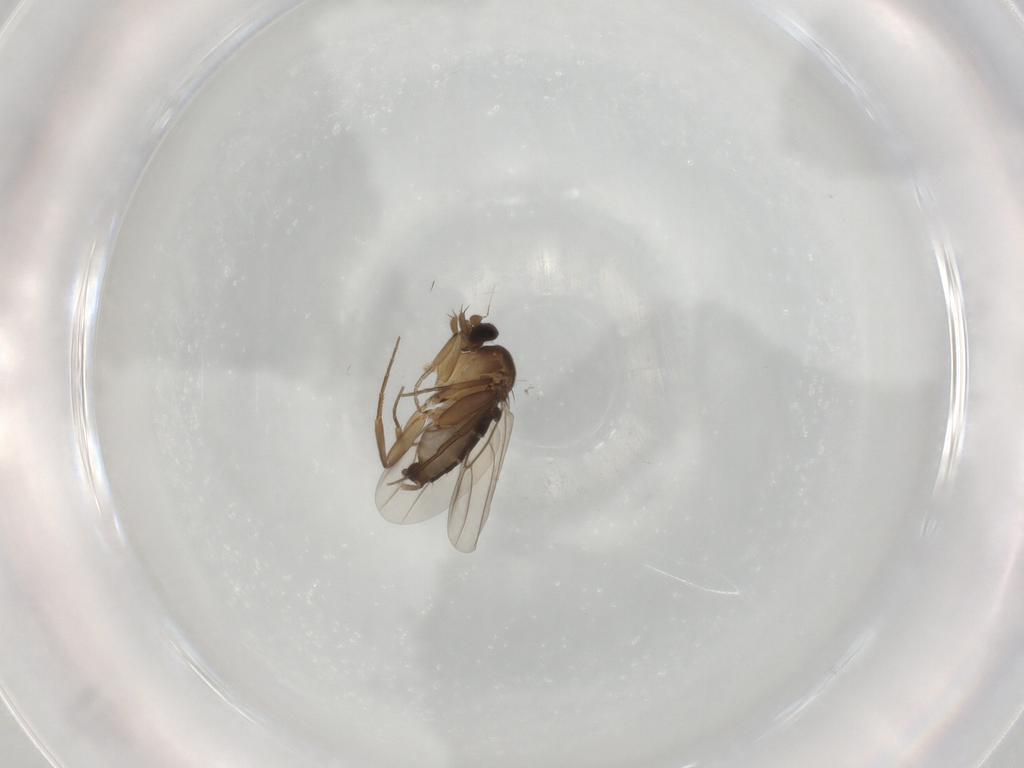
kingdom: Animalia
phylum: Arthropoda
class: Insecta
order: Diptera
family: Phoridae
